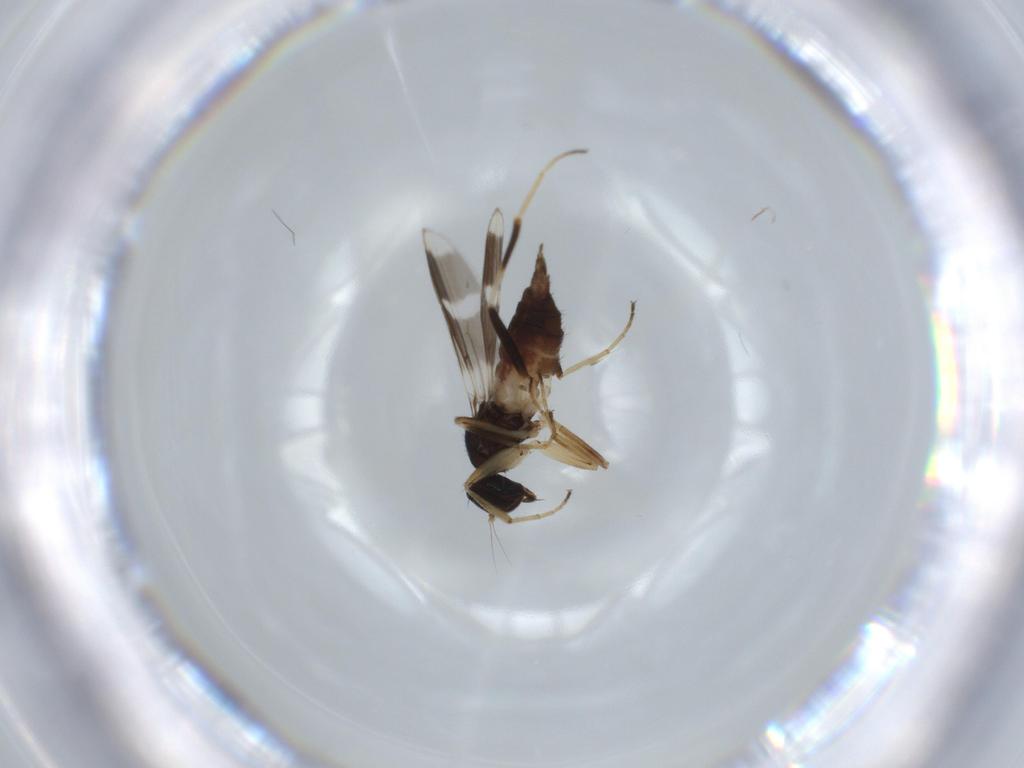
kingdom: Animalia
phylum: Arthropoda
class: Insecta
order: Diptera
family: Hybotidae
